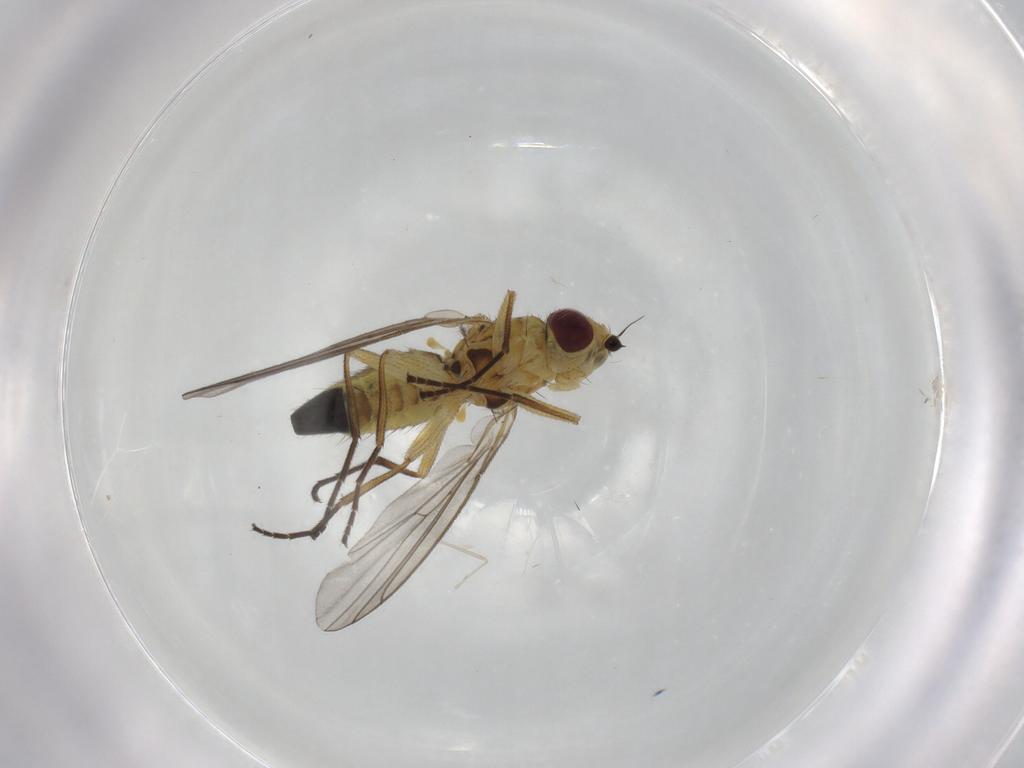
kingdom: Animalia
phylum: Arthropoda
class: Insecta
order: Diptera
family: Agromyzidae
